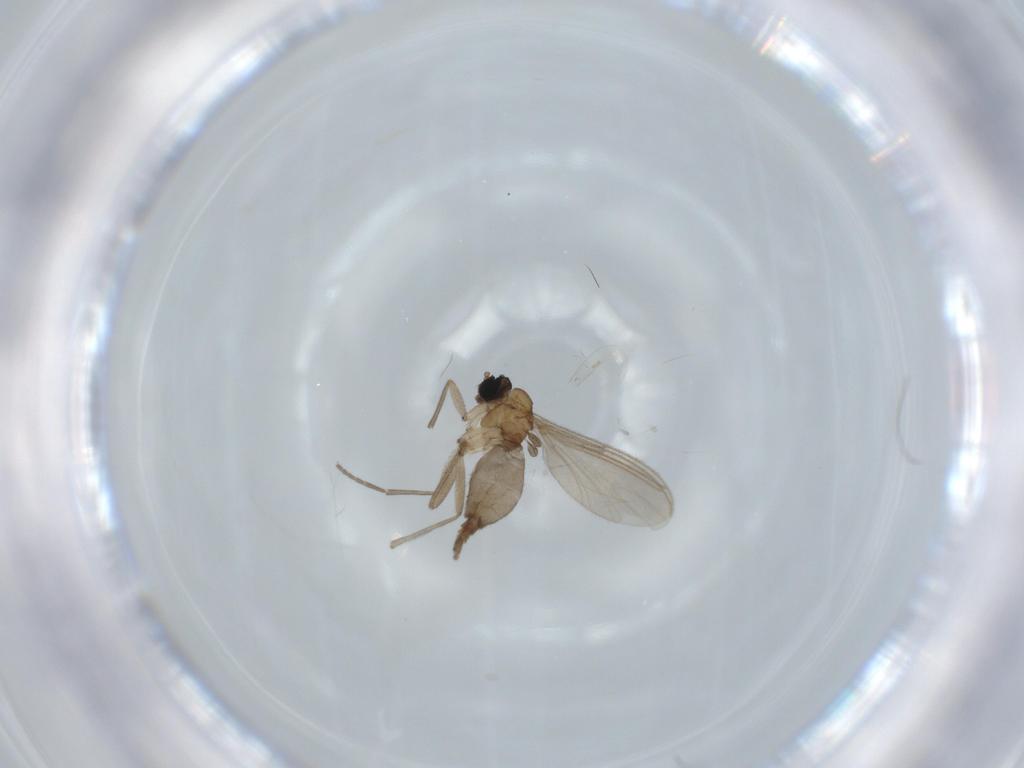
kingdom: Animalia
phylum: Arthropoda
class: Insecta
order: Diptera
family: Sciaridae
